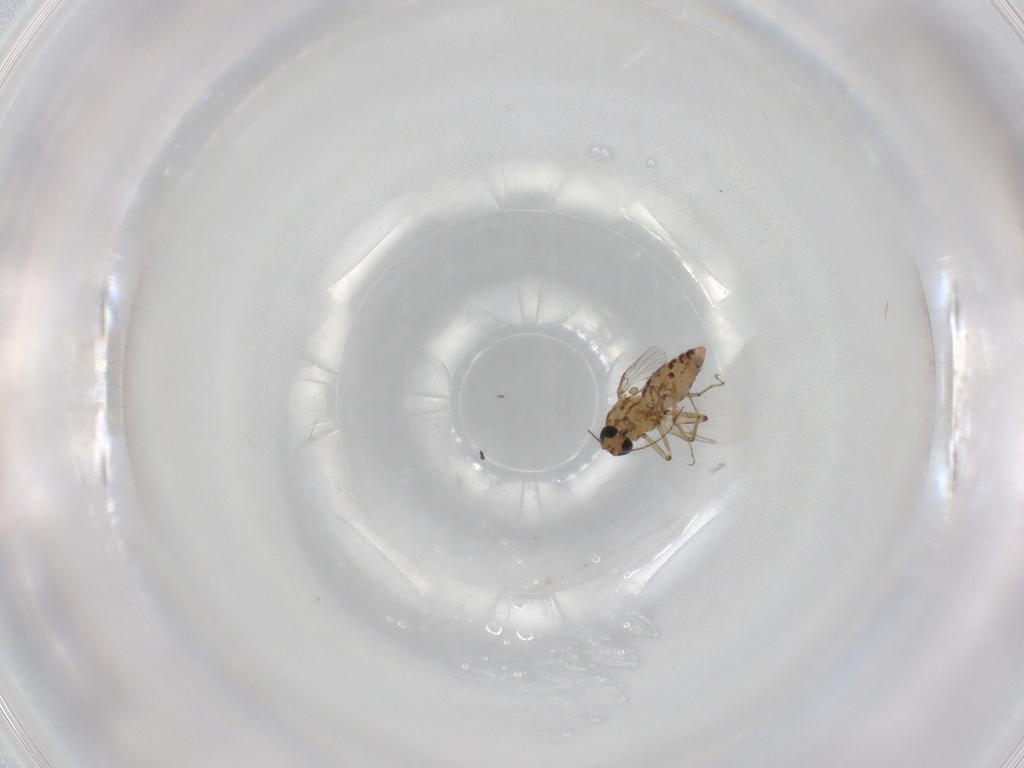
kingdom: Animalia
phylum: Arthropoda
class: Insecta
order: Diptera
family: Ceratopogonidae
